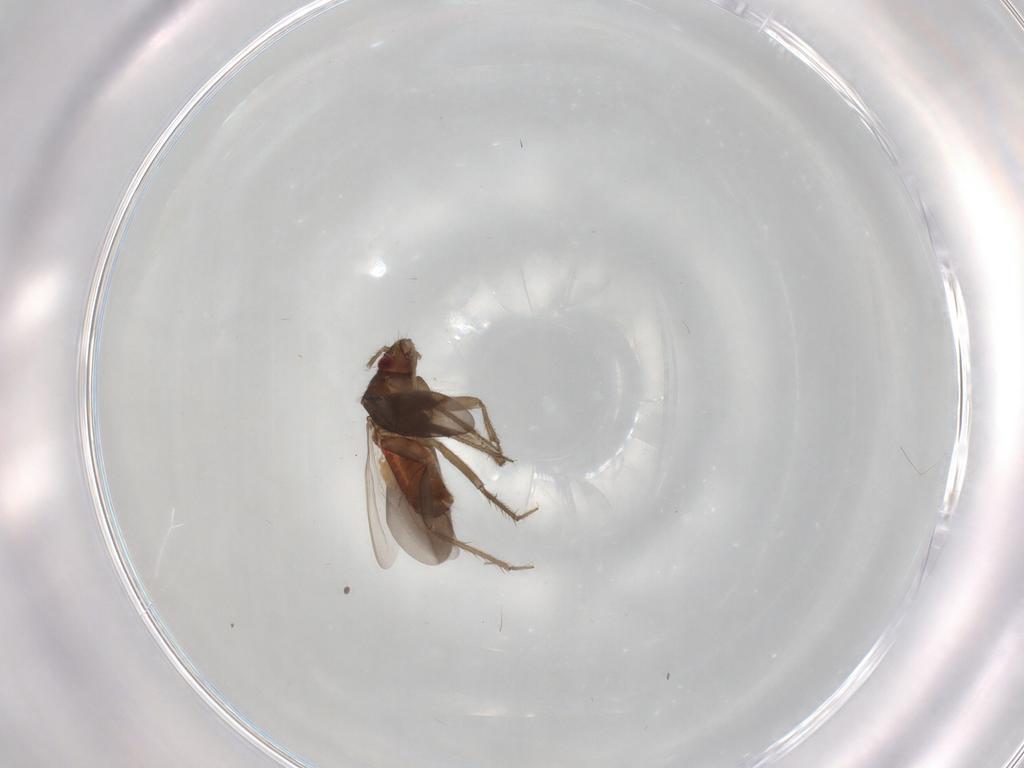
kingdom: Animalia
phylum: Arthropoda
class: Insecta
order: Hemiptera
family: Ceratocombidae
